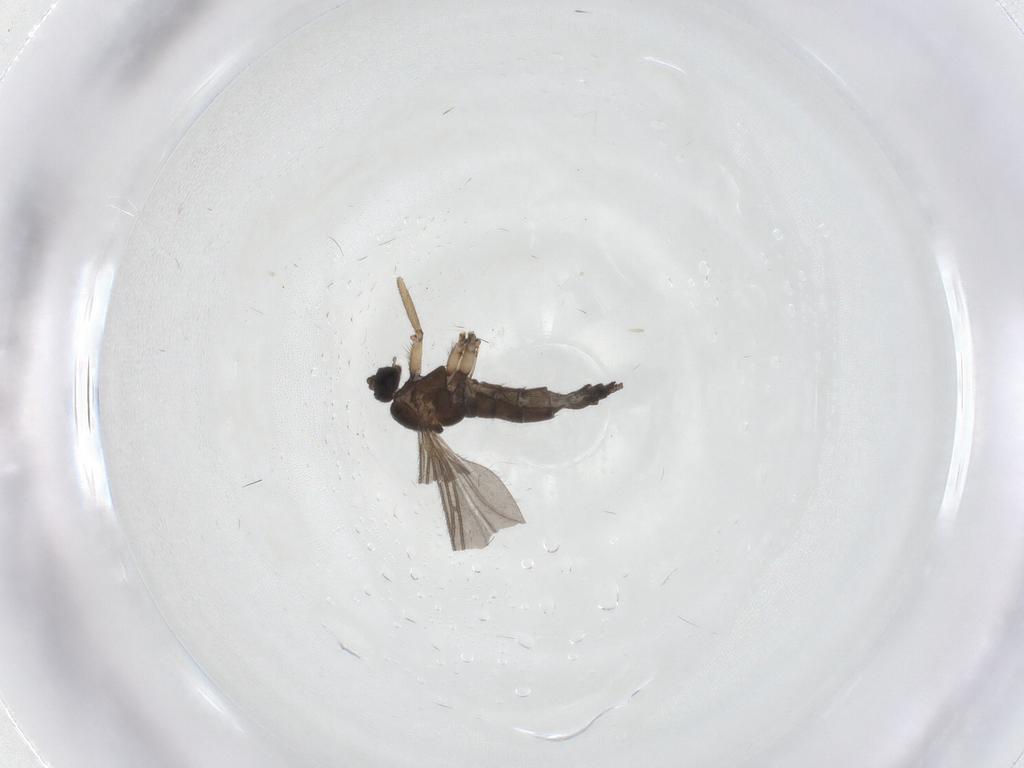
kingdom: Animalia
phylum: Arthropoda
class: Insecta
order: Diptera
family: Sciaridae
